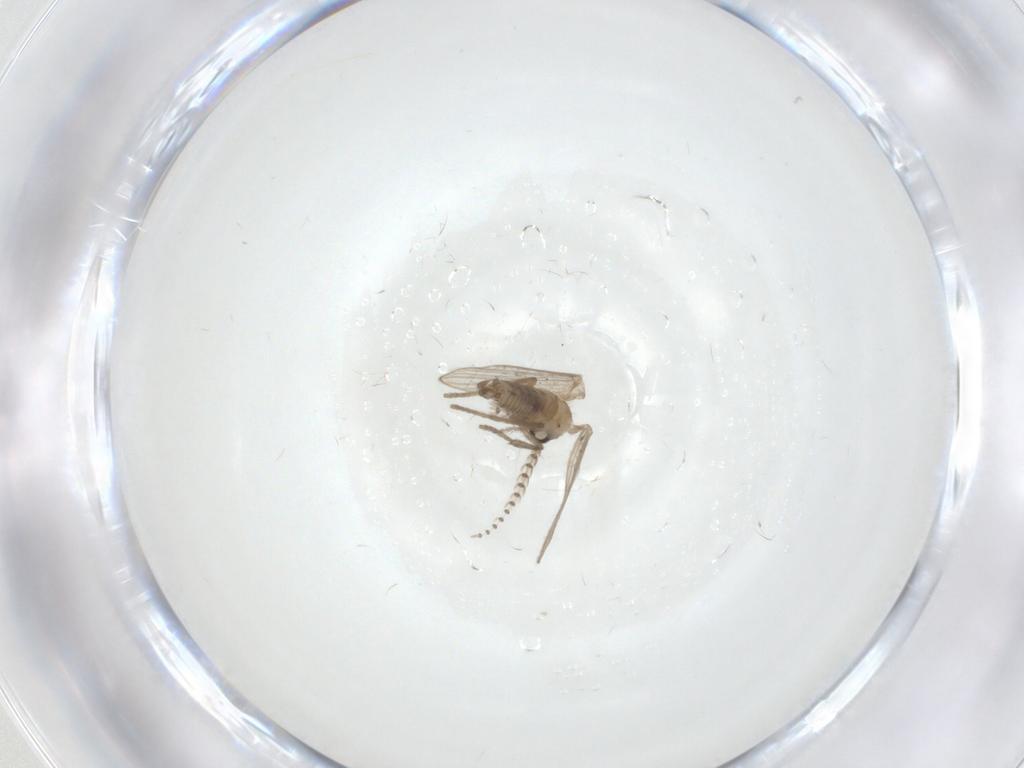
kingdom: Animalia
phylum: Arthropoda
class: Insecta
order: Diptera
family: Psychodidae
